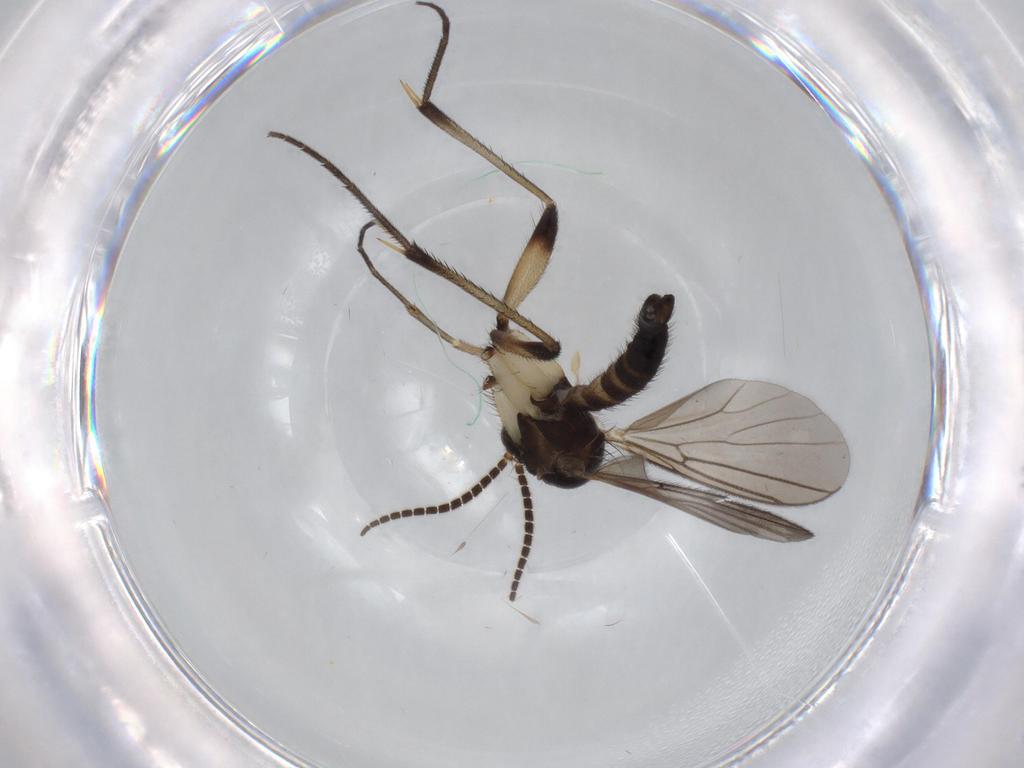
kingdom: Animalia
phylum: Arthropoda
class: Insecta
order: Diptera
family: Mycetophilidae
